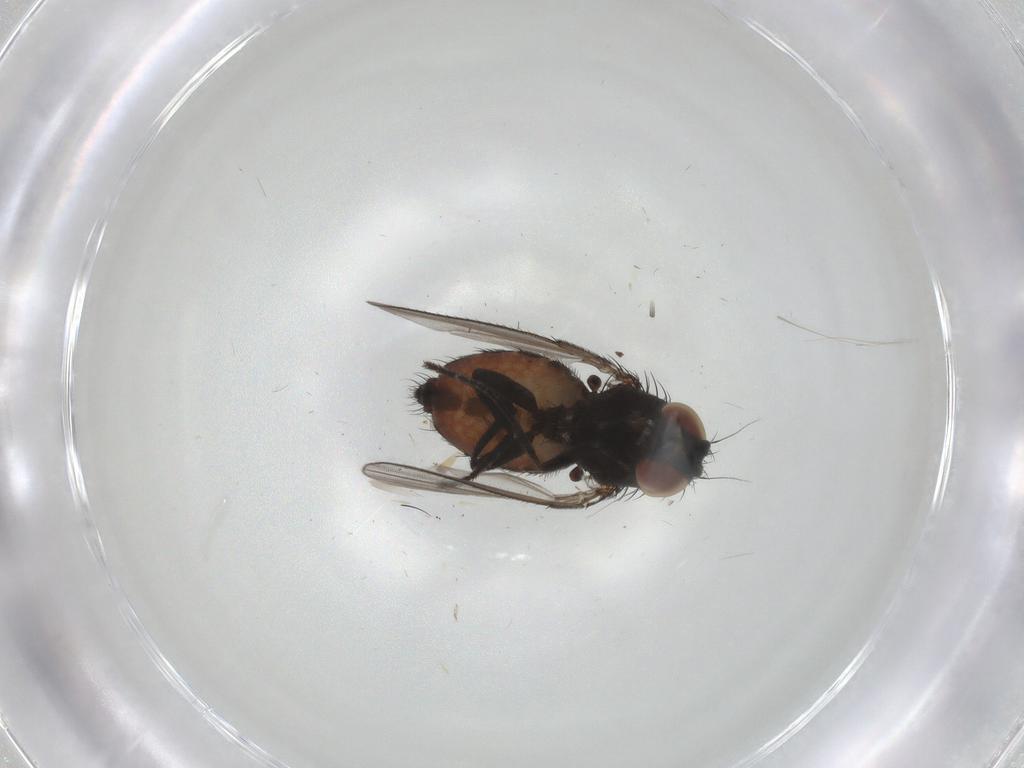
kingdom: Animalia
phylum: Arthropoda
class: Insecta
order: Diptera
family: Milichiidae
